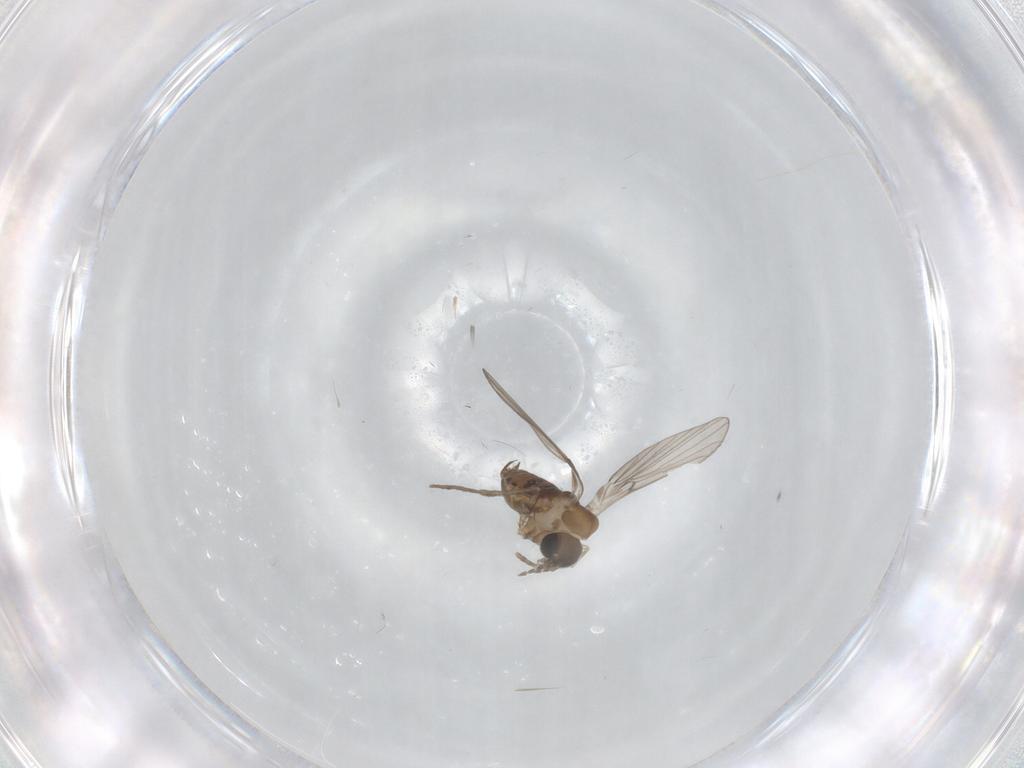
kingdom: Animalia
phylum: Arthropoda
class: Insecta
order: Diptera
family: Psychodidae
